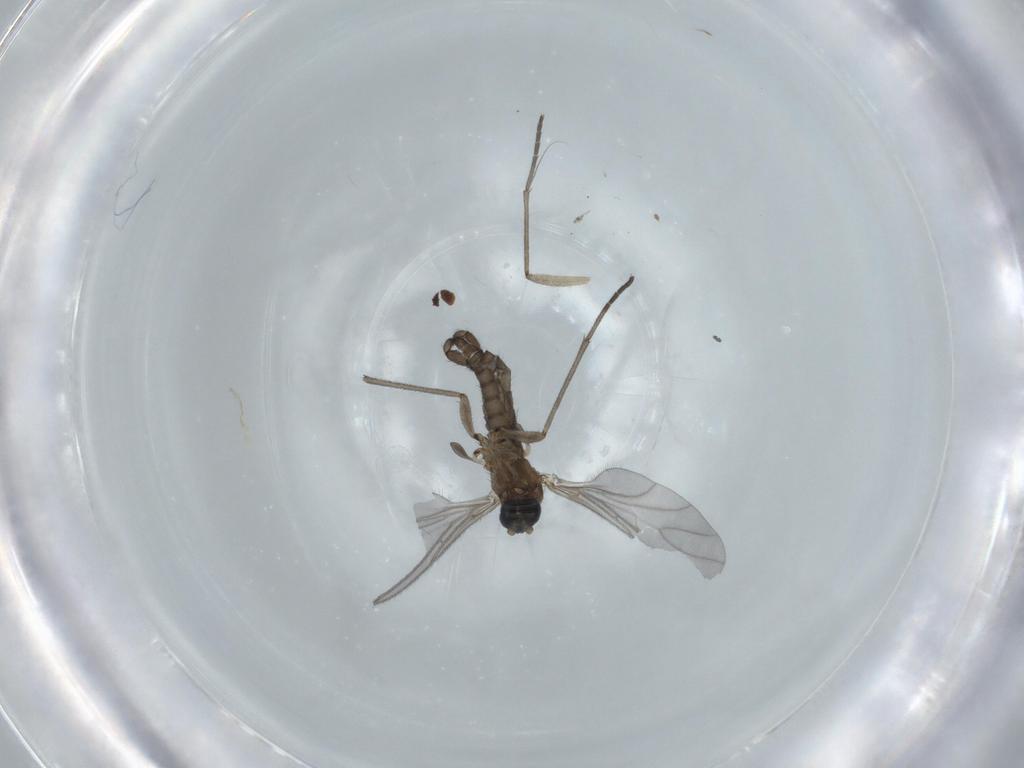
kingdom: Animalia
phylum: Arthropoda
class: Insecta
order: Diptera
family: Sciaridae
